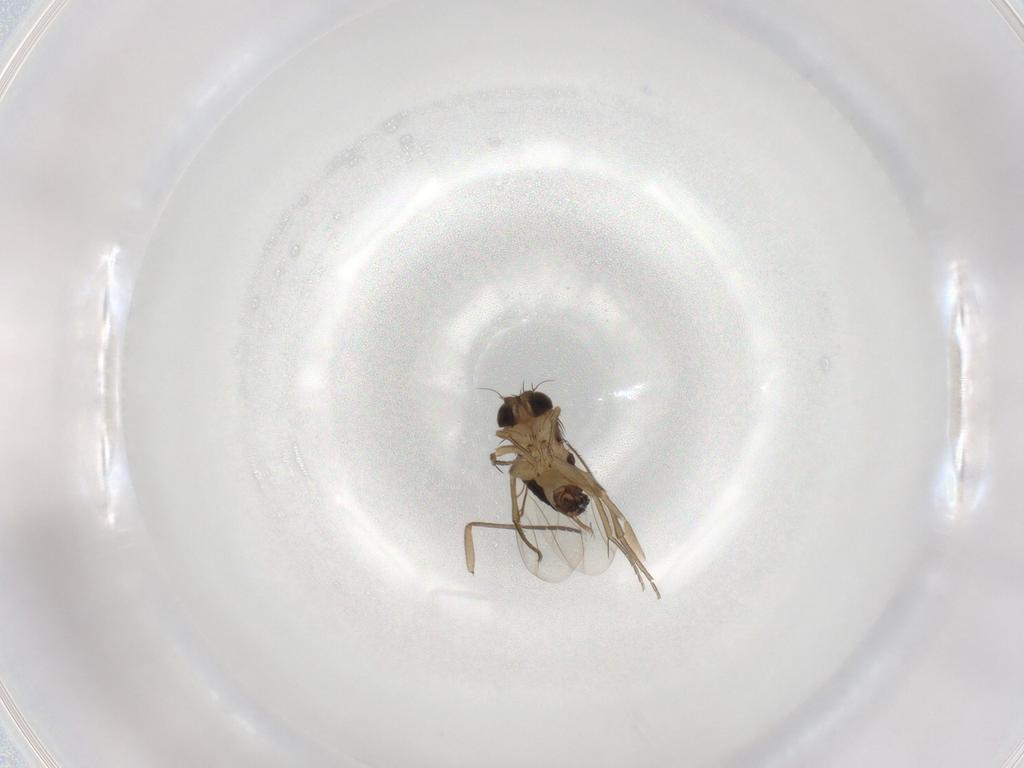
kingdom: Animalia
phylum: Arthropoda
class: Insecta
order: Diptera
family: Phoridae
